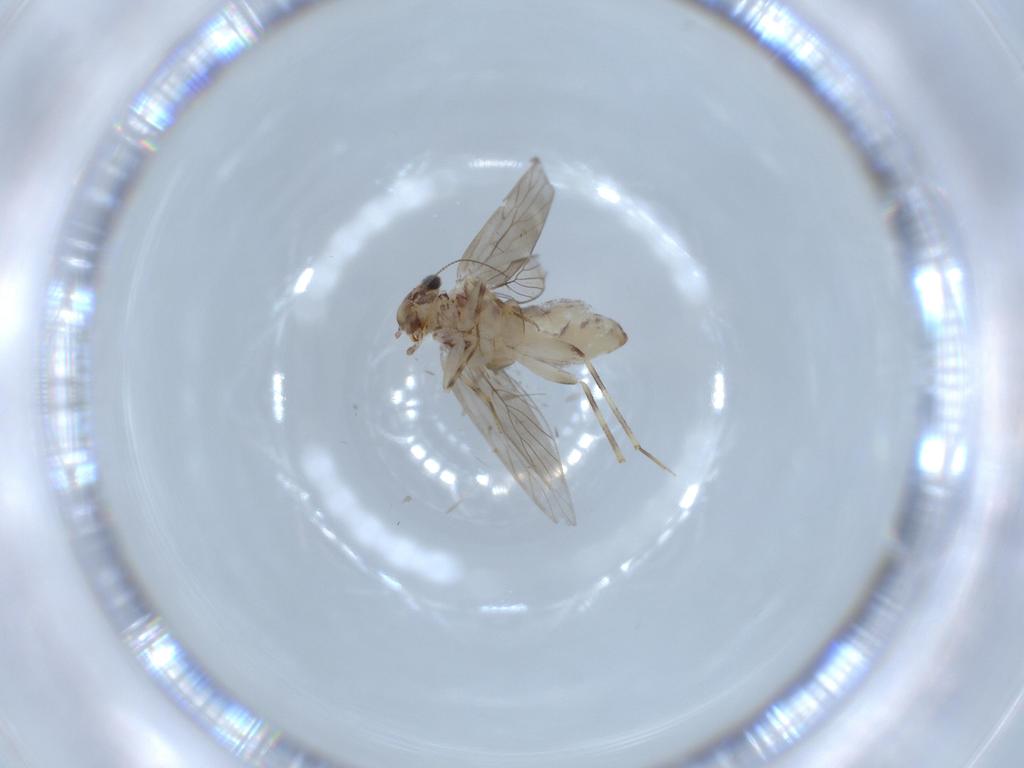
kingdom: Animalia
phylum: Arthropoda
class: Insecta
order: Psocodea
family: Lepidopsocidae
